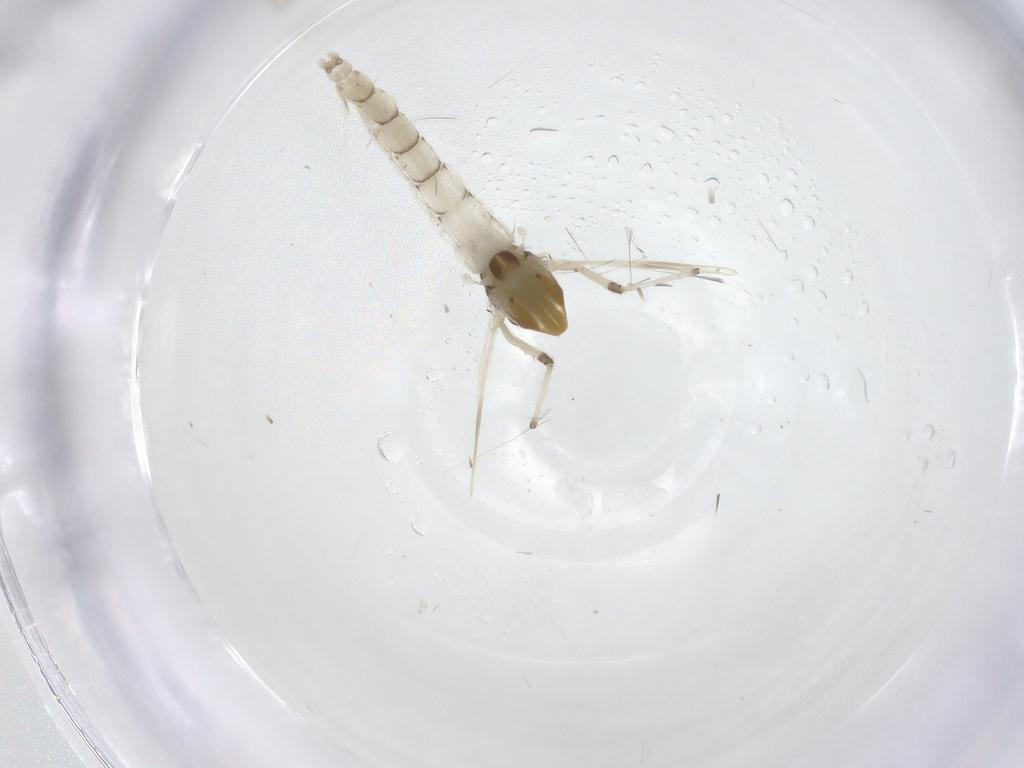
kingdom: Animalia
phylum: Arthropoda
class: Insecta
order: Diptera
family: Chironomidae
